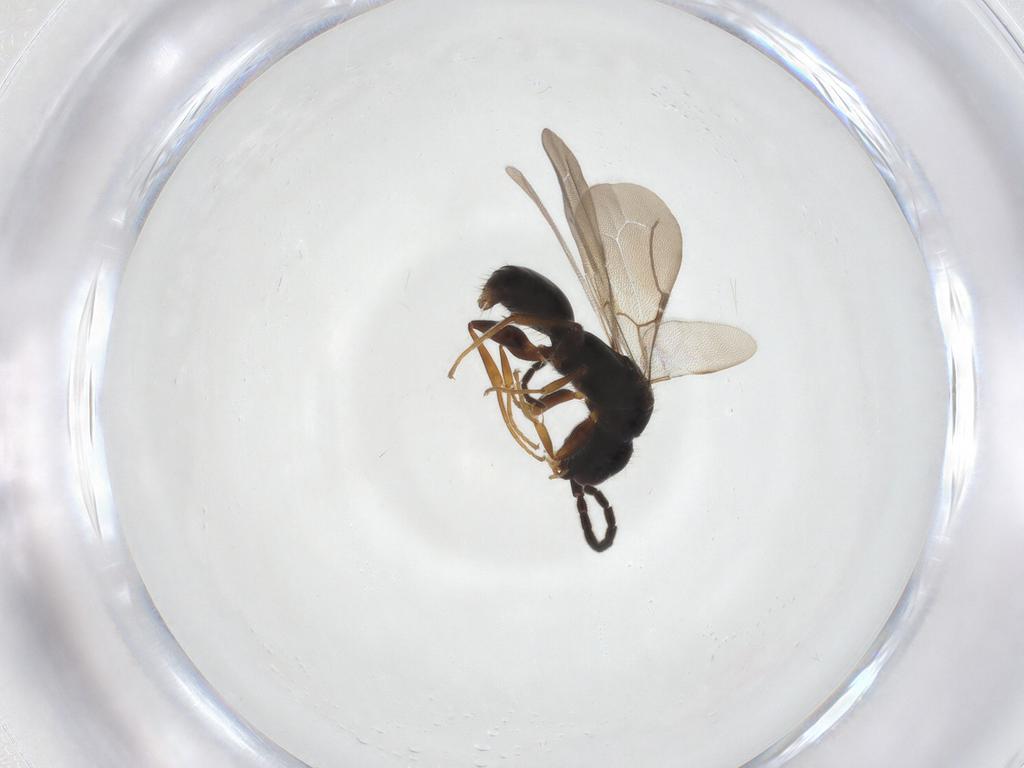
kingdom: Animalia
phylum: Arthropoda
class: Insecta
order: Hymenoptera
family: Bethylidae
